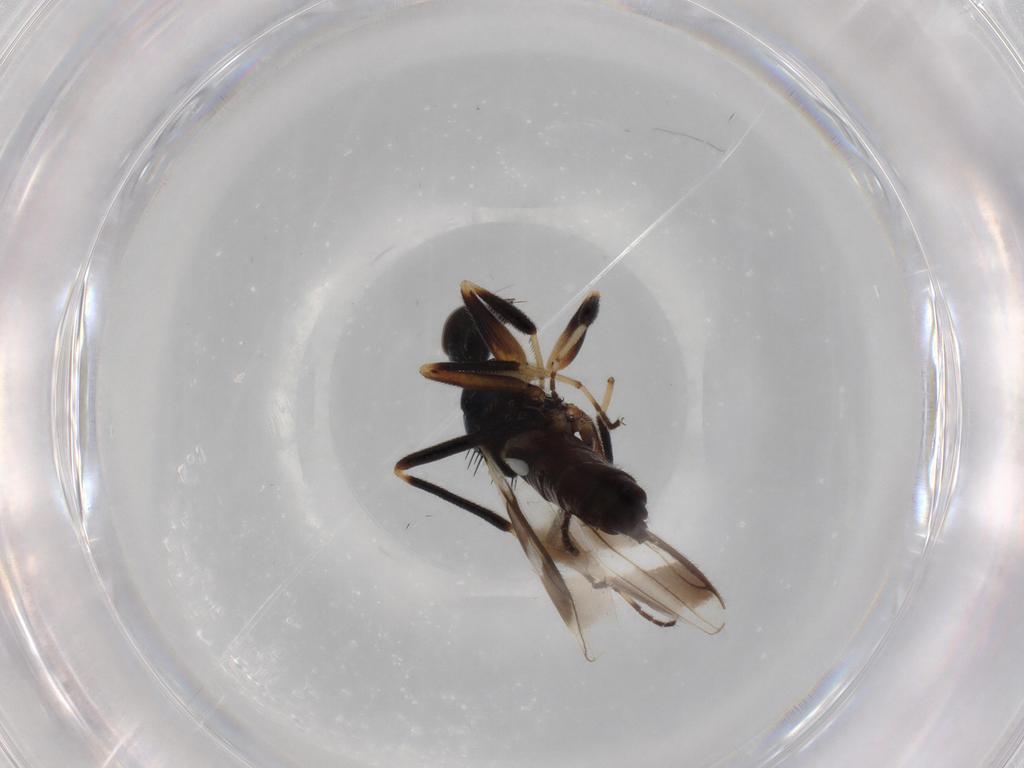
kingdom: Animalia
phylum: Arthropoda
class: Insecta
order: Diptera
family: Hybotidae
